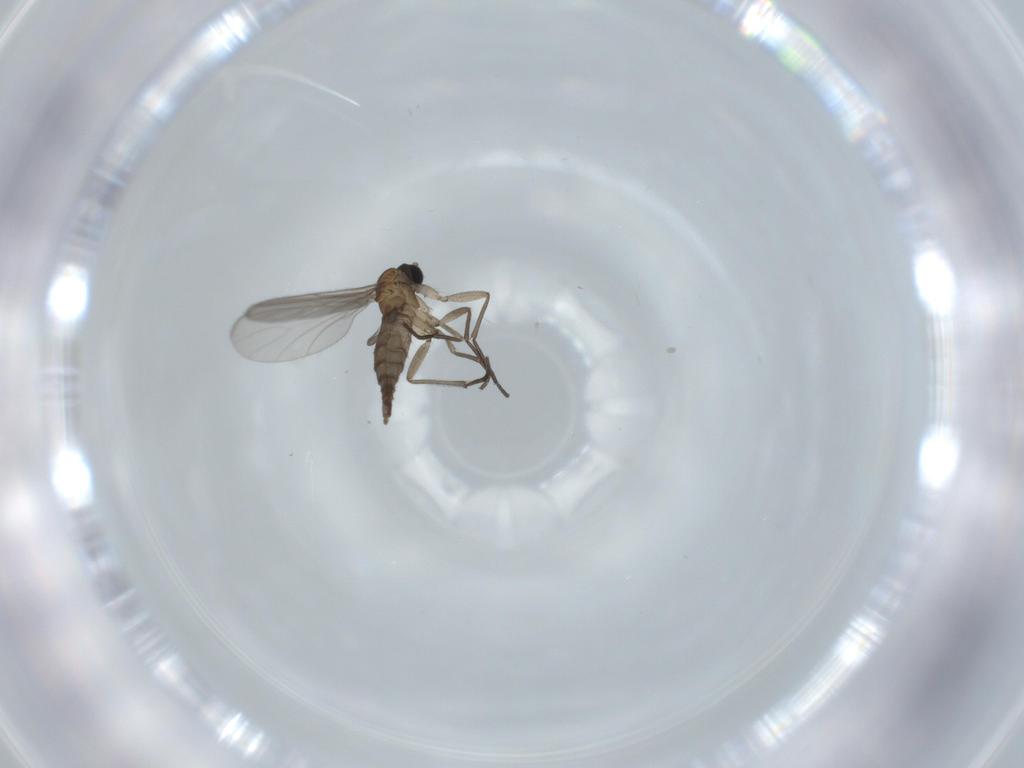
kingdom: Animalia
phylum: Arthropoda
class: Insecta
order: Diptera
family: Sciaridae
